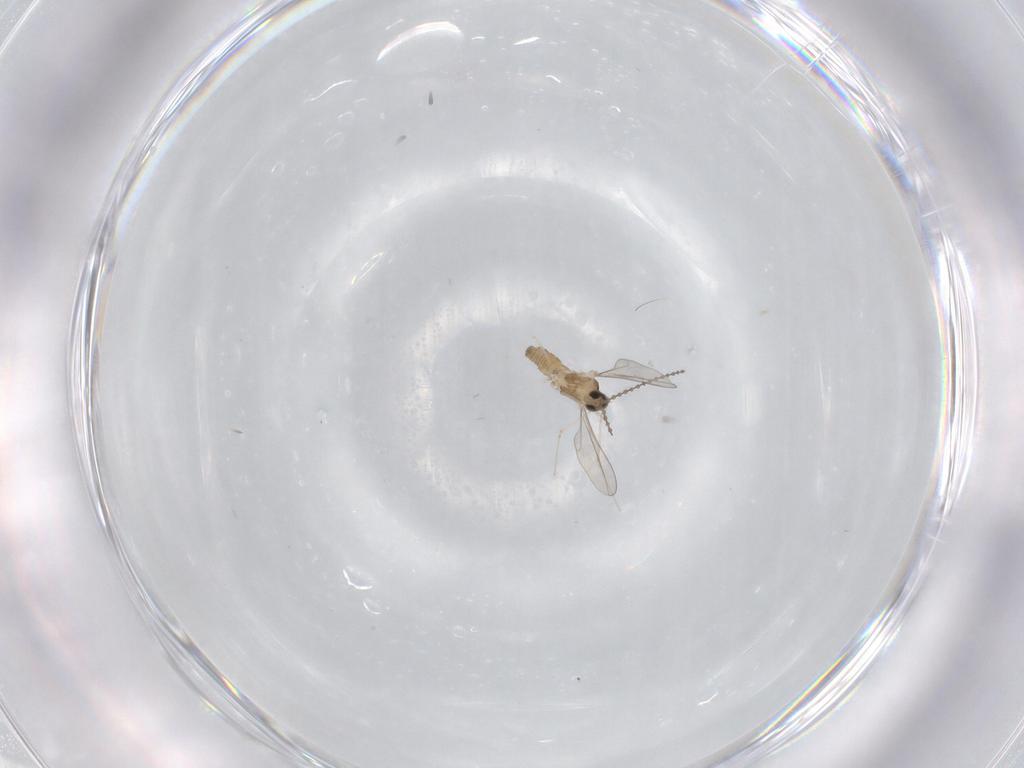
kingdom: Animalia
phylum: Arthropoda
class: Insecta
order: Diptera
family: Cecidomyiidae
